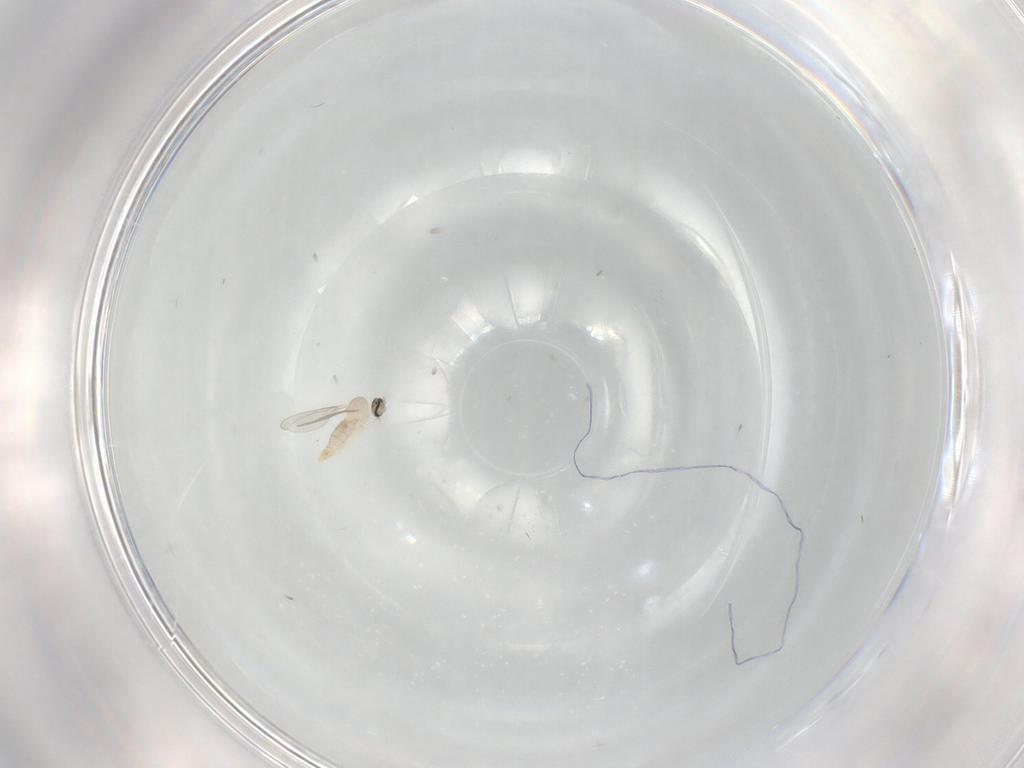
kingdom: Animalia
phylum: Arthropoda
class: Insecta
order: Diptera
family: Cecidomyiidae
